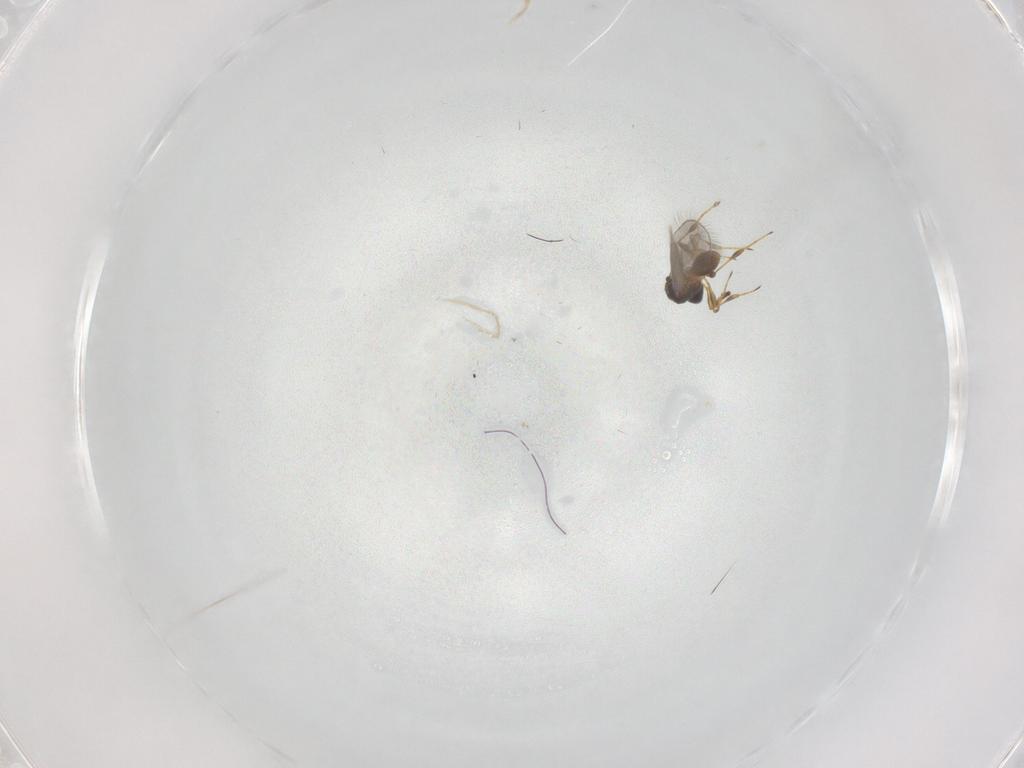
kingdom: Animalia
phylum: Arthropoda
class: Insecta
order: Hymenoptera
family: Platygastridae
